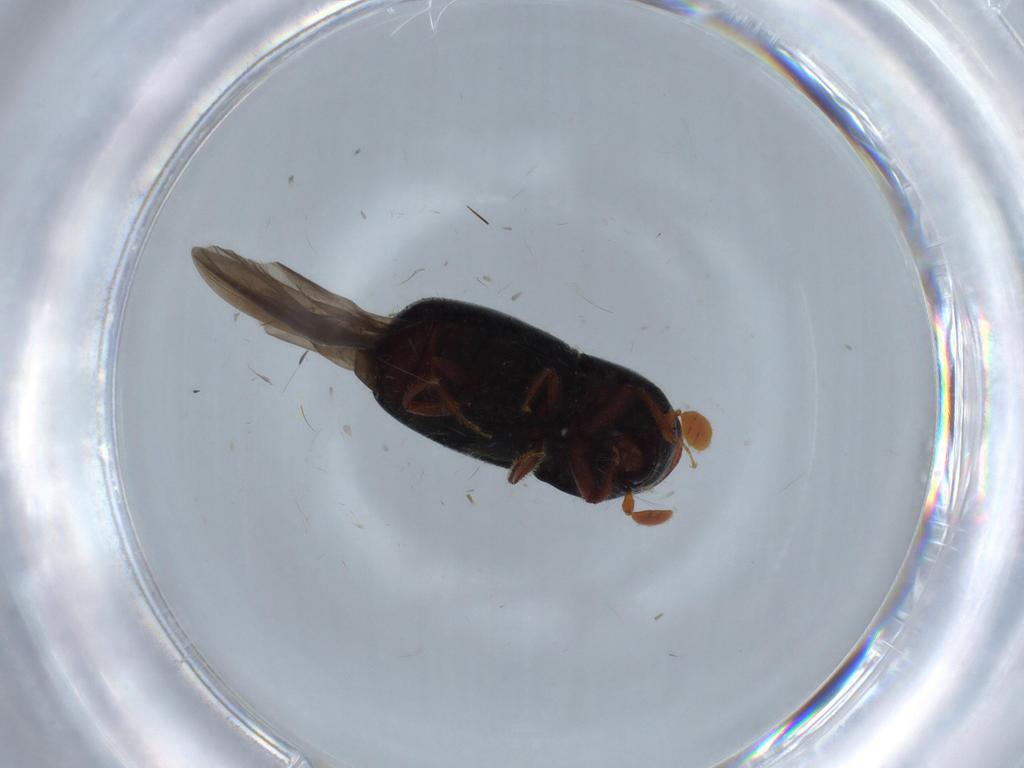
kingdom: Animalia
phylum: Arthropoda
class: Insecta
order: Coleoptera
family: Curculionidae
